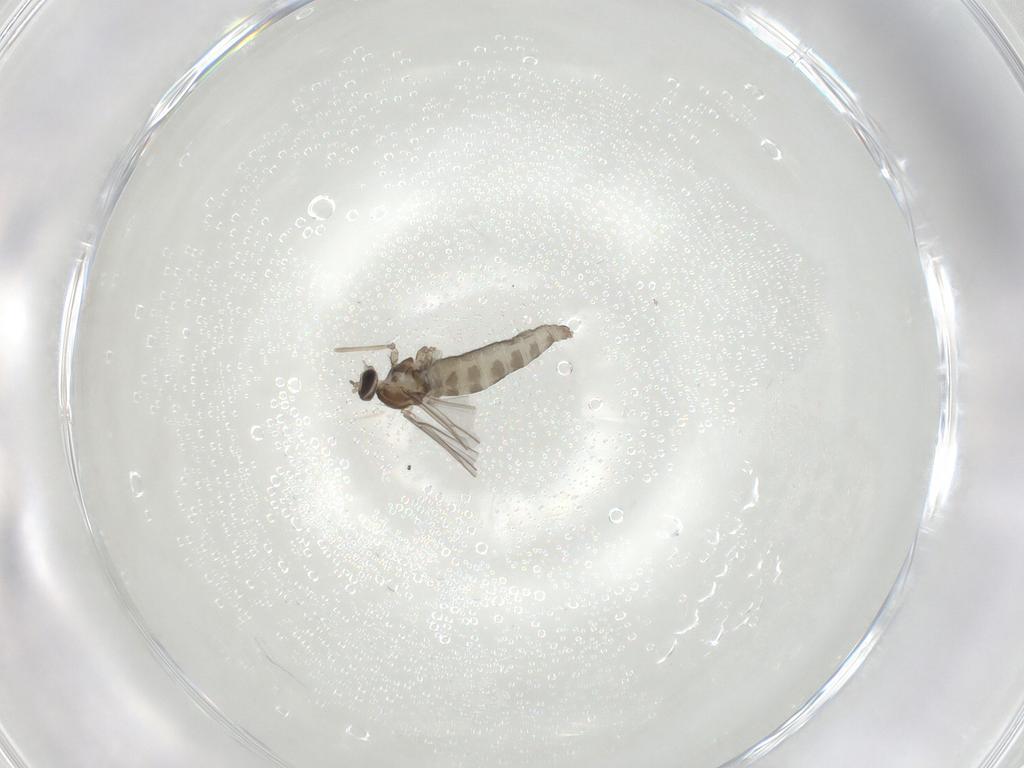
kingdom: Animalia
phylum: Arthropoda
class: Insecta
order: Diptera
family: Cecidomyiidae
